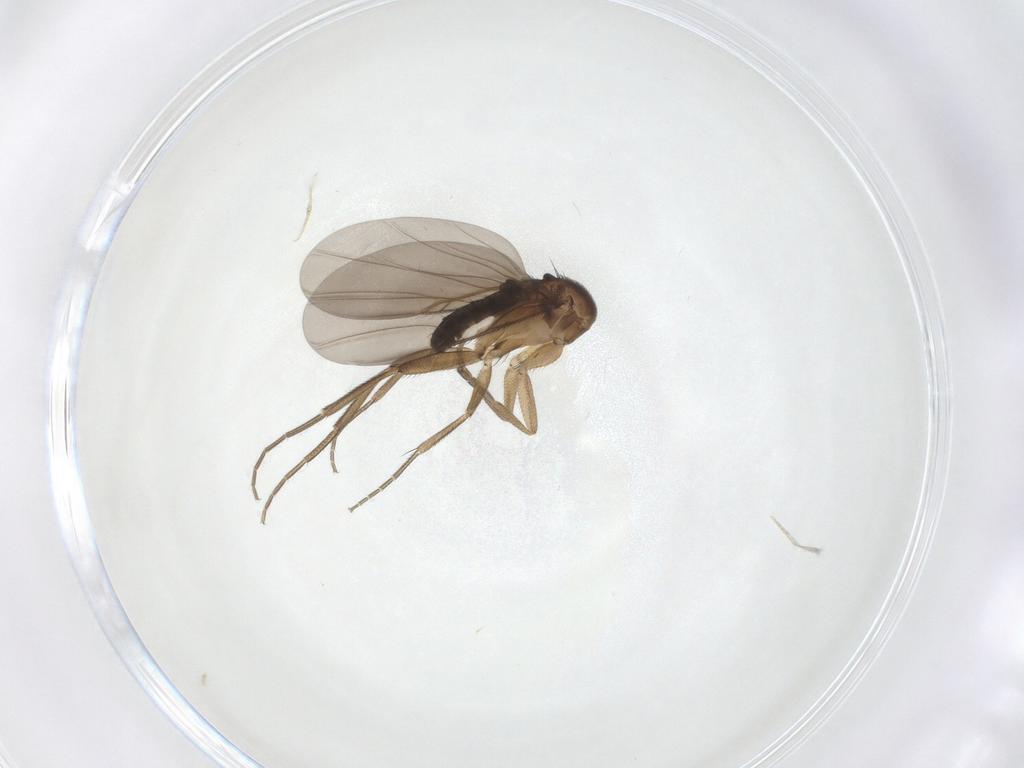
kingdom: Animalia
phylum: Arthropoda
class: Insecta
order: Diptera
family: Phoridae
